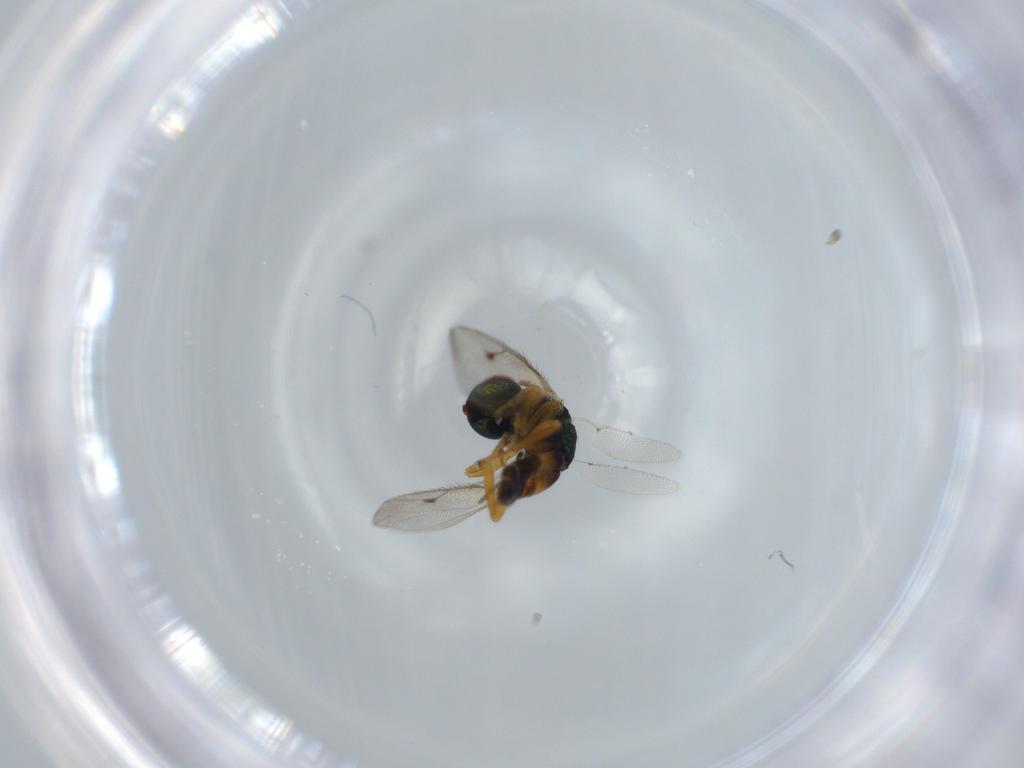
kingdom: Animalia
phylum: Arthropoda
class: Insecta
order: Hymenoptera
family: Pteromalidae
